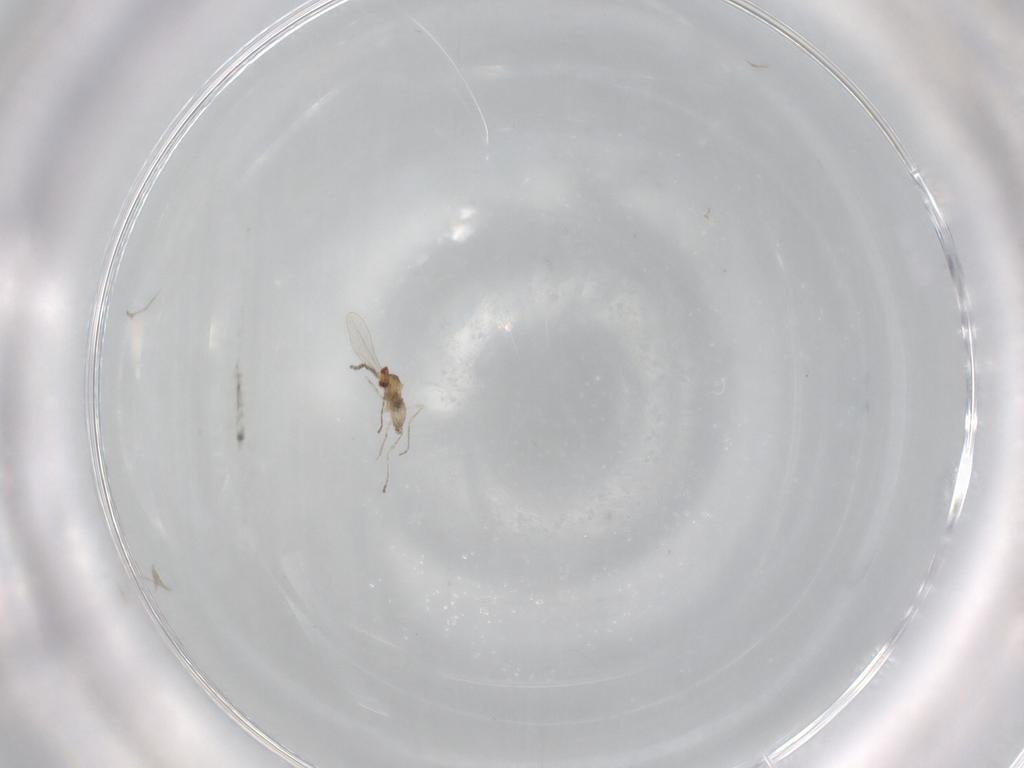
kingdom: Animalia
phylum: Arthropoda
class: Insecta
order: Diptera
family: Cecidomyiidae
